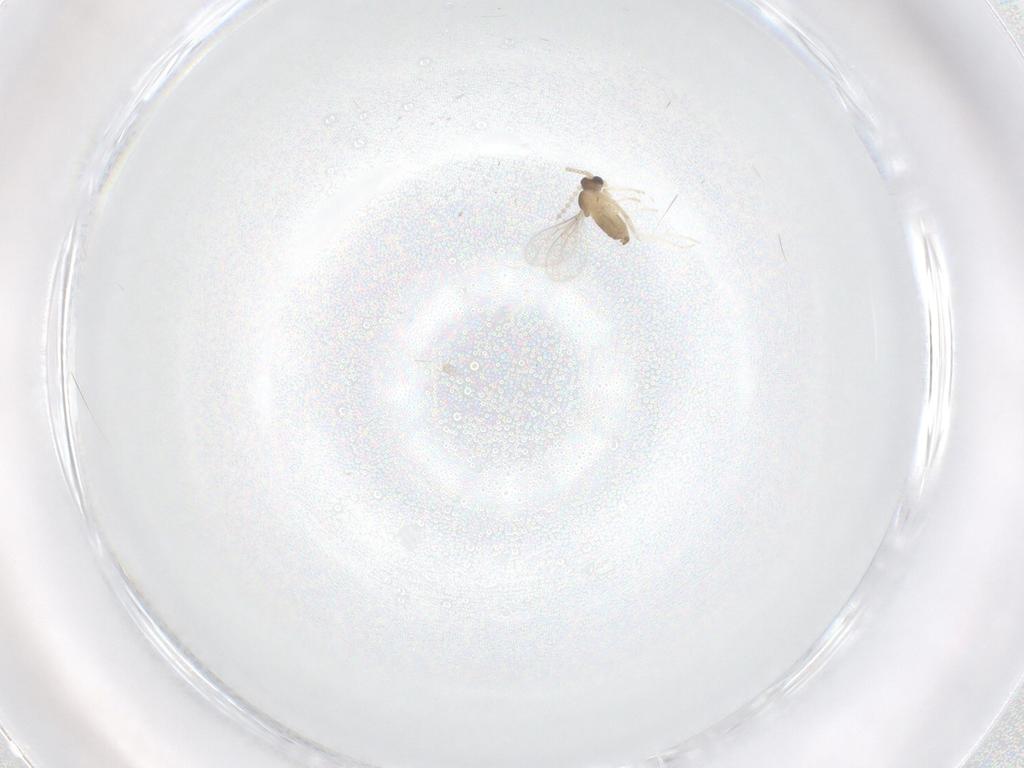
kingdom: Animalia
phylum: Arthropoda
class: Insecta
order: Diptera
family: Cecidomyiidae
